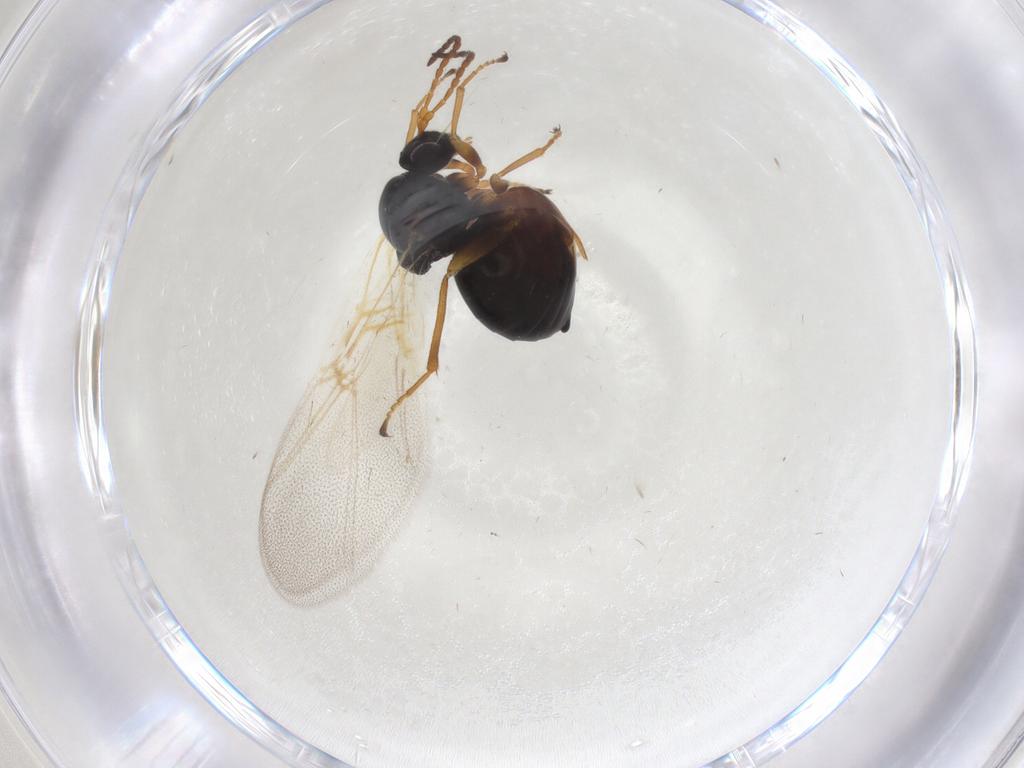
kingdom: Animalia
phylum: Arthropoda
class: Insecta
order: Hymenoptera
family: Cynipidae
